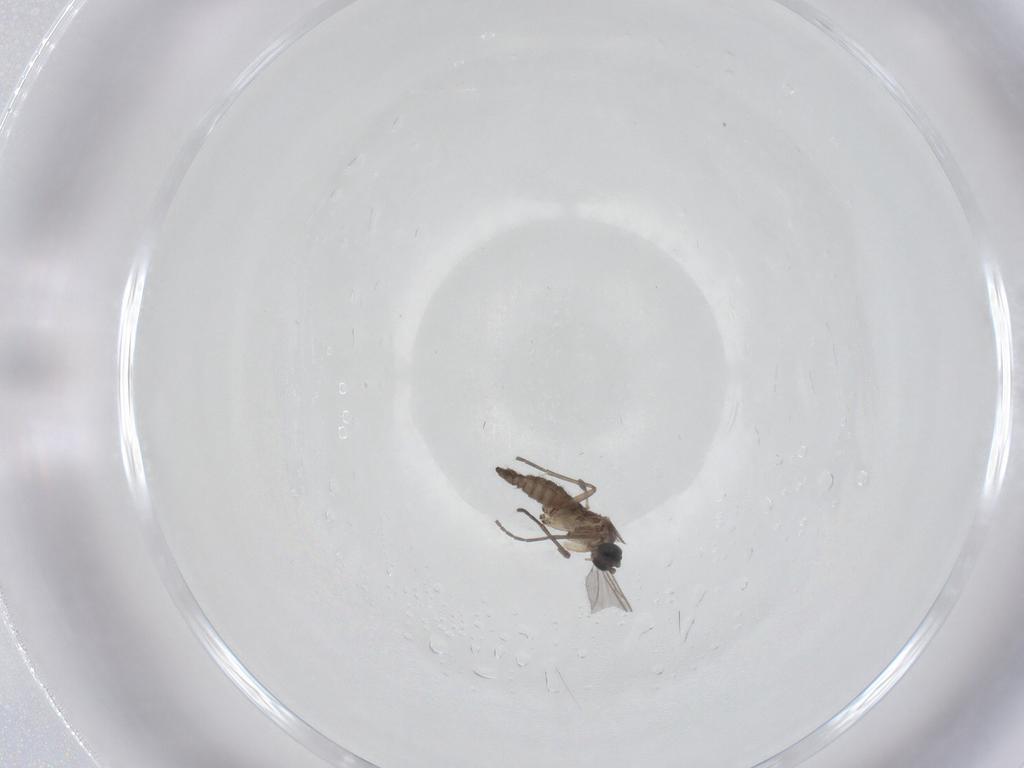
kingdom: Animalia
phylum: Arthropoda
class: Insecta
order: Diptera
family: Sciaridae
